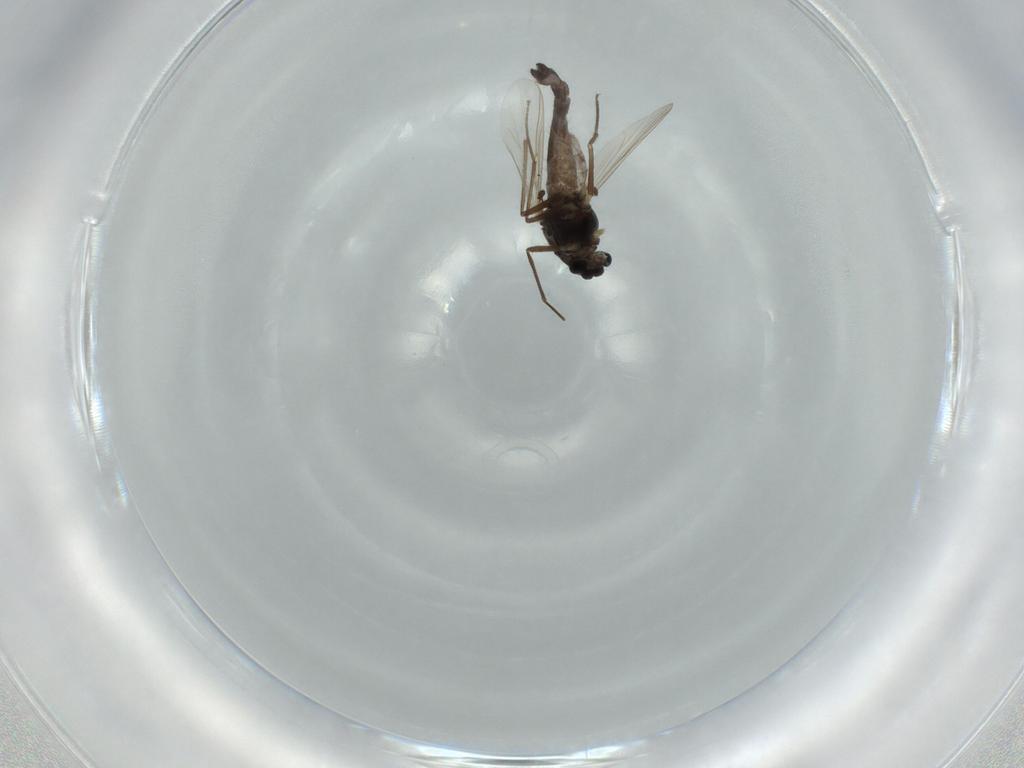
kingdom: Animalia
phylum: Arthropoda
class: Insecta
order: Diptera
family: Chironomidae
